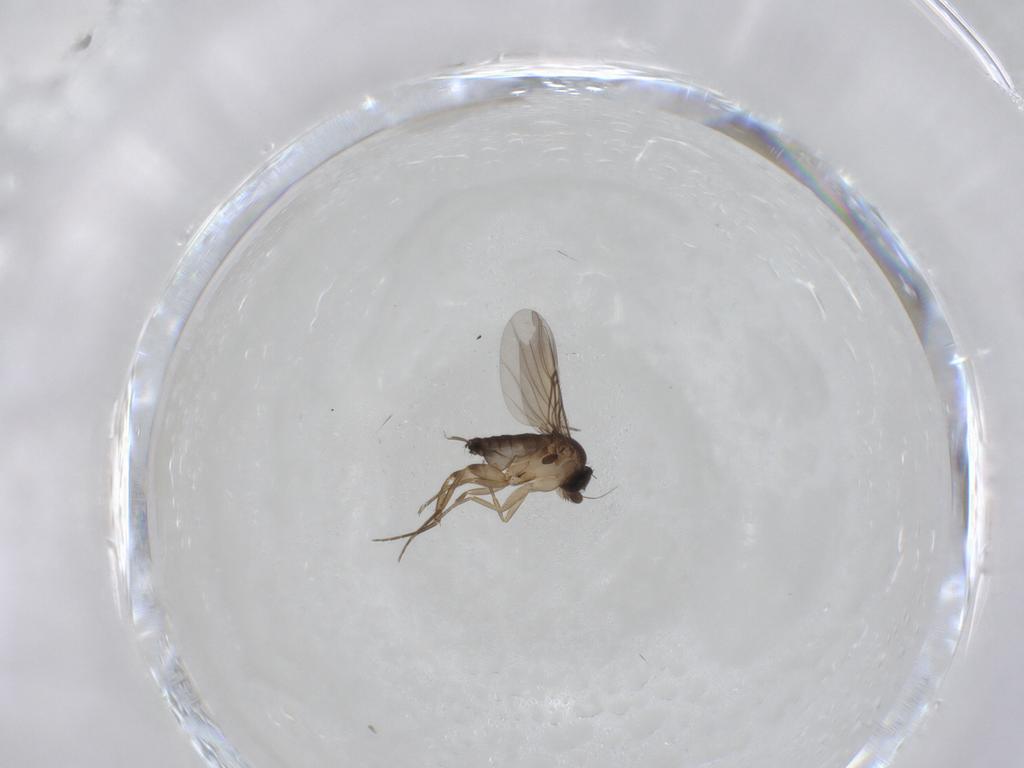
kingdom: Animalia
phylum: Arthropoda
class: Insecta
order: Diptera
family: Phoridae
